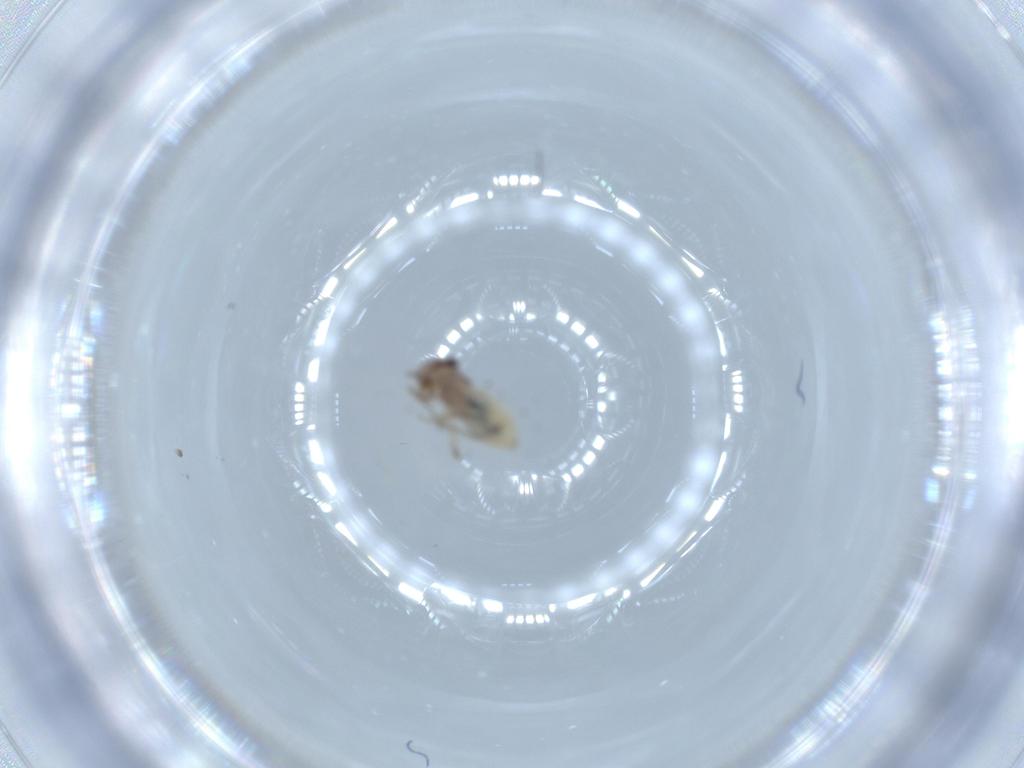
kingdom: Animalia
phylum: Arthropoda
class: Insecta
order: Psocodea
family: Lepidopsocidae
